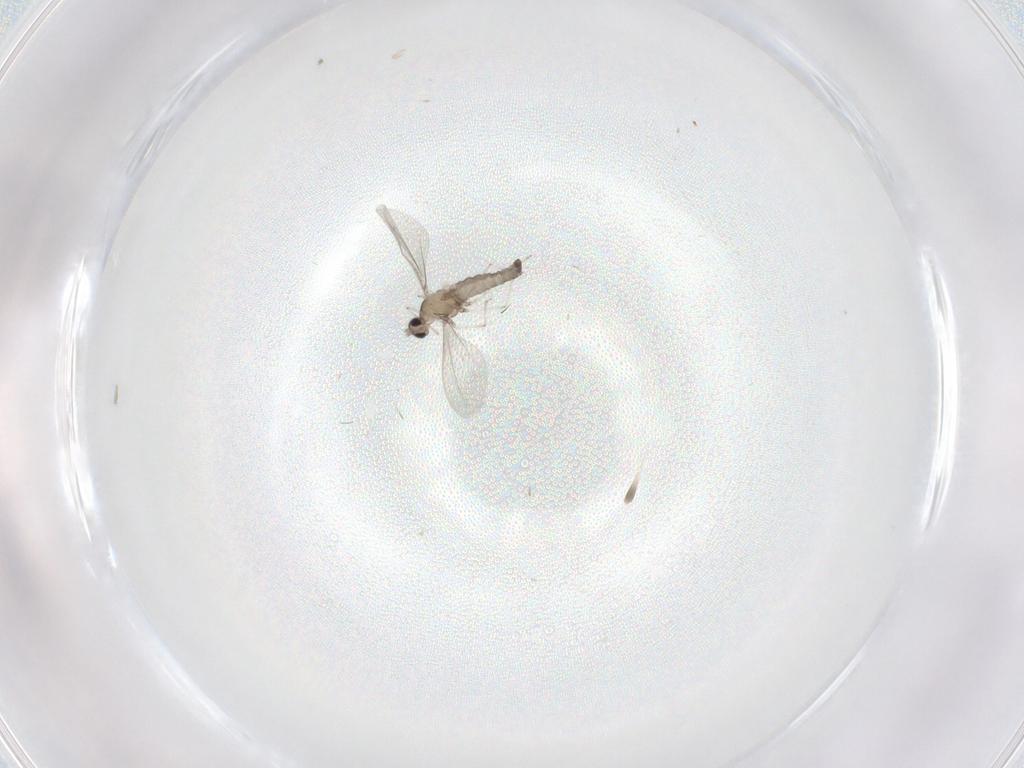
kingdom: Animalia
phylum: Arthropoda
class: Insecta
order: Diptera
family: Cecidomyiidae
